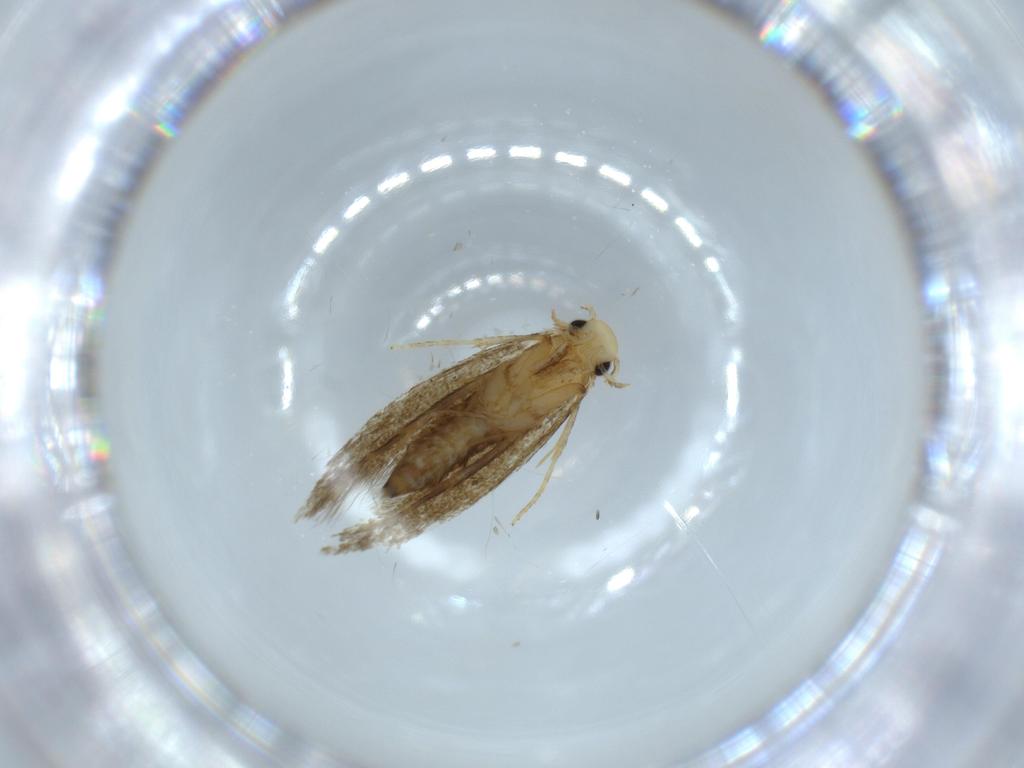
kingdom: Animalia
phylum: Arthropoda
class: Insecta
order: Lepidoptera
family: Tineidae
